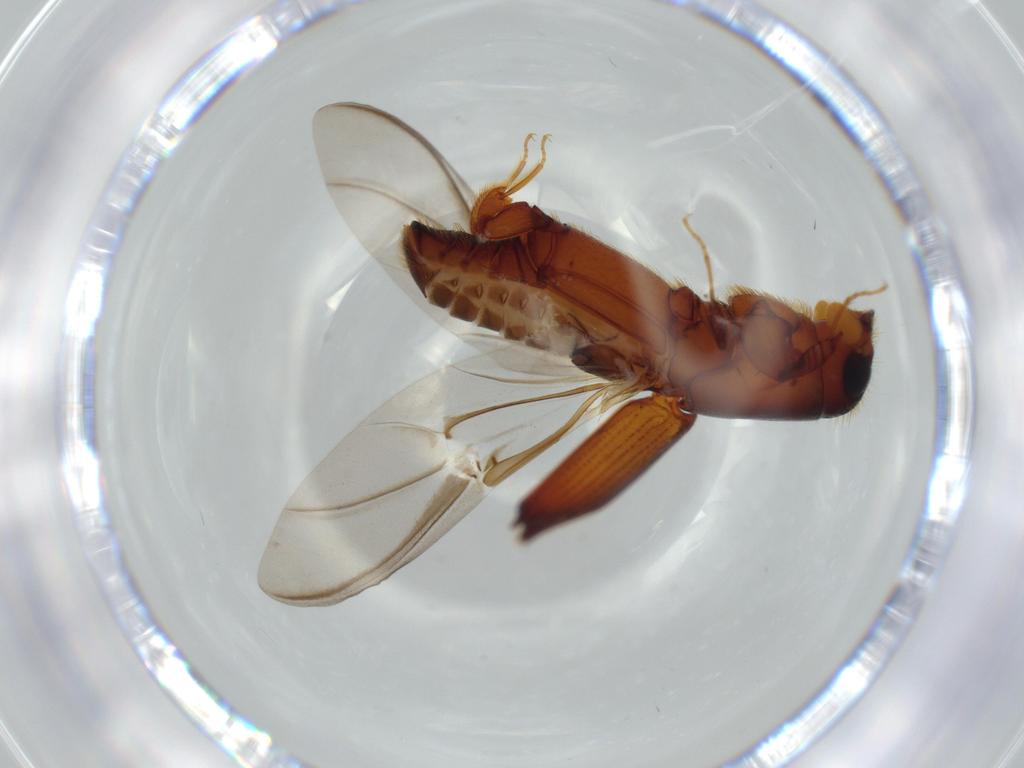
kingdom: Animalia
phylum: Arthropoda
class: Insecta
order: Coleoptera
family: Curculionidae
